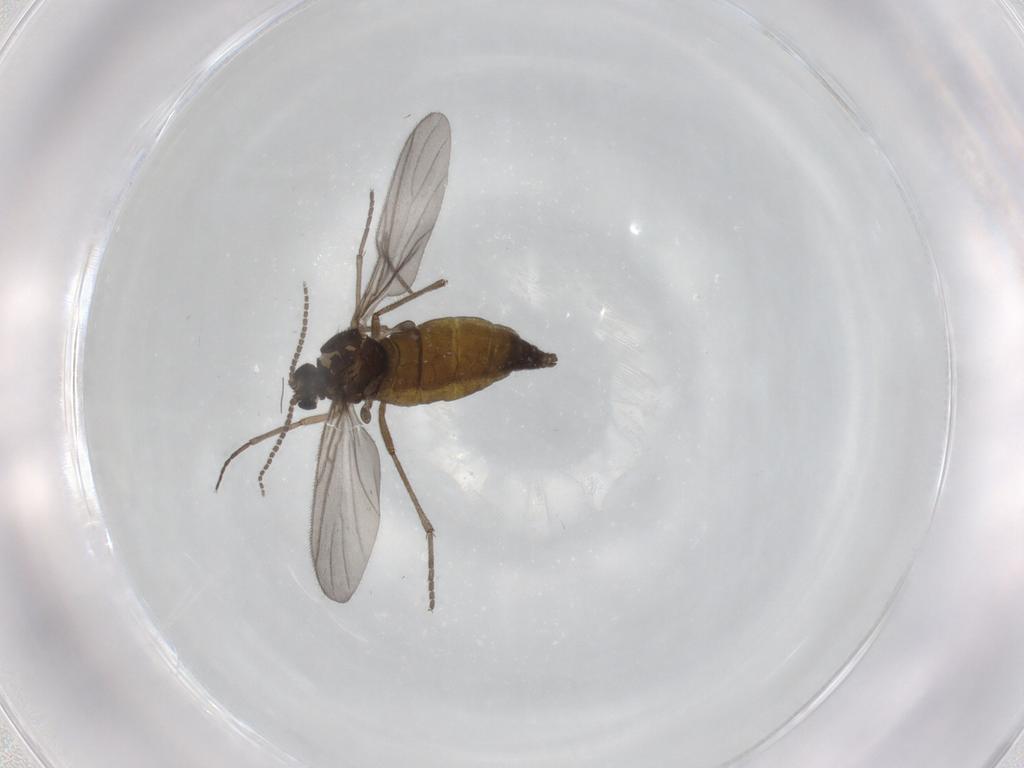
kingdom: Animalia
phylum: Arthropoda
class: Insecta
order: Diptera
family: Sciaridae
